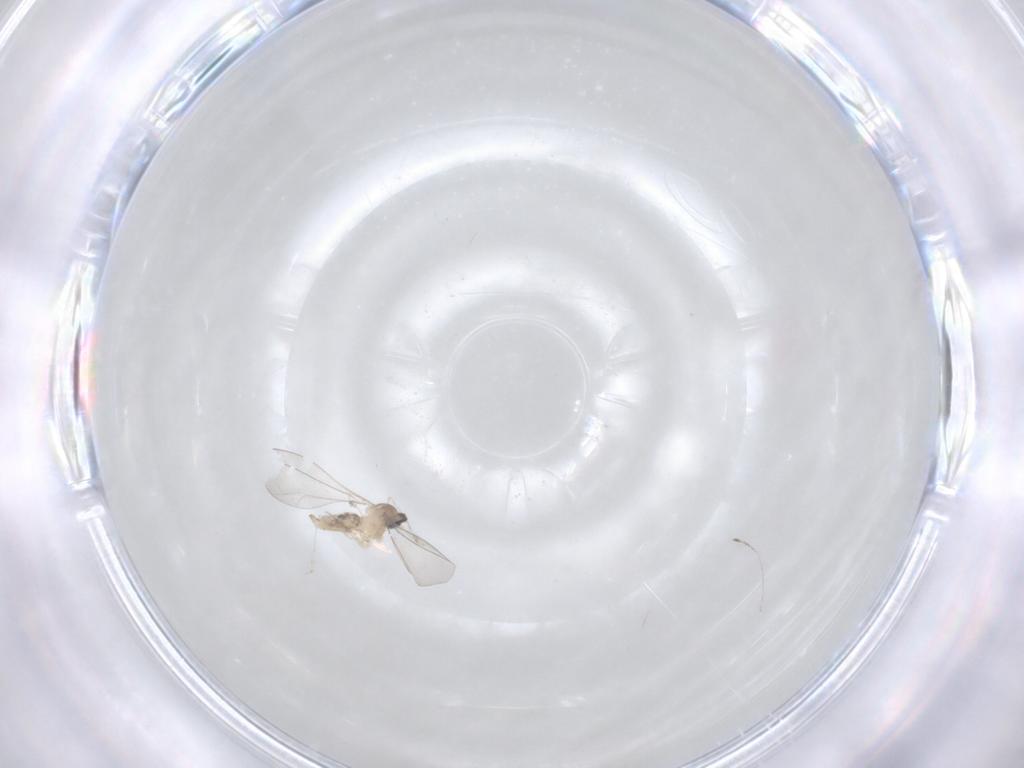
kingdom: Animalia
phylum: Arthropoda
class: Insecta
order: Diptera
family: Cecidomyiidae
